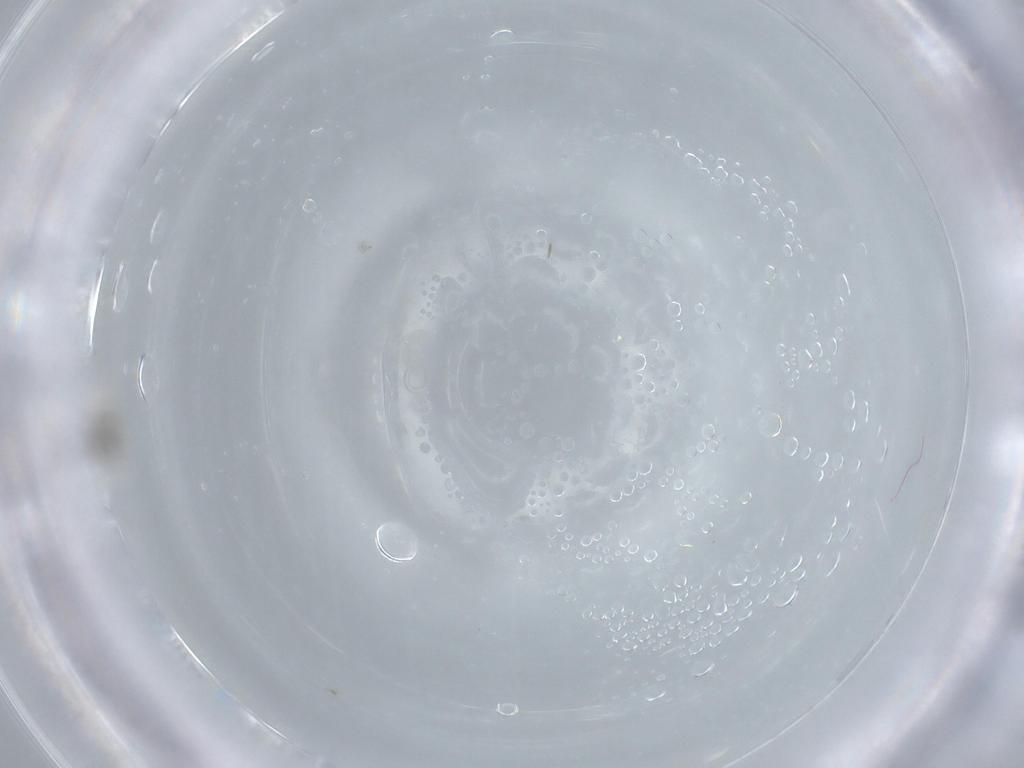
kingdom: Animalia
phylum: Arthropoda
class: Insecta
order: Diptera
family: Cecidomyiidae
